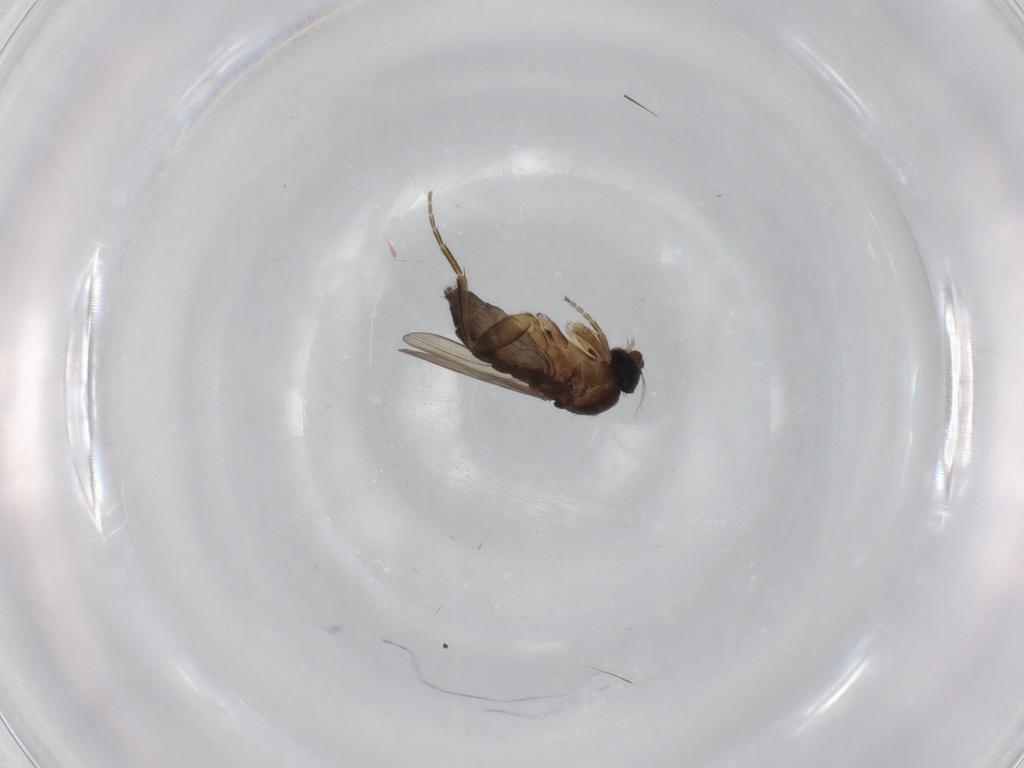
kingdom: Animalia
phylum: Arthropoda
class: Insecta
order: Diptera
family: Phoridae
